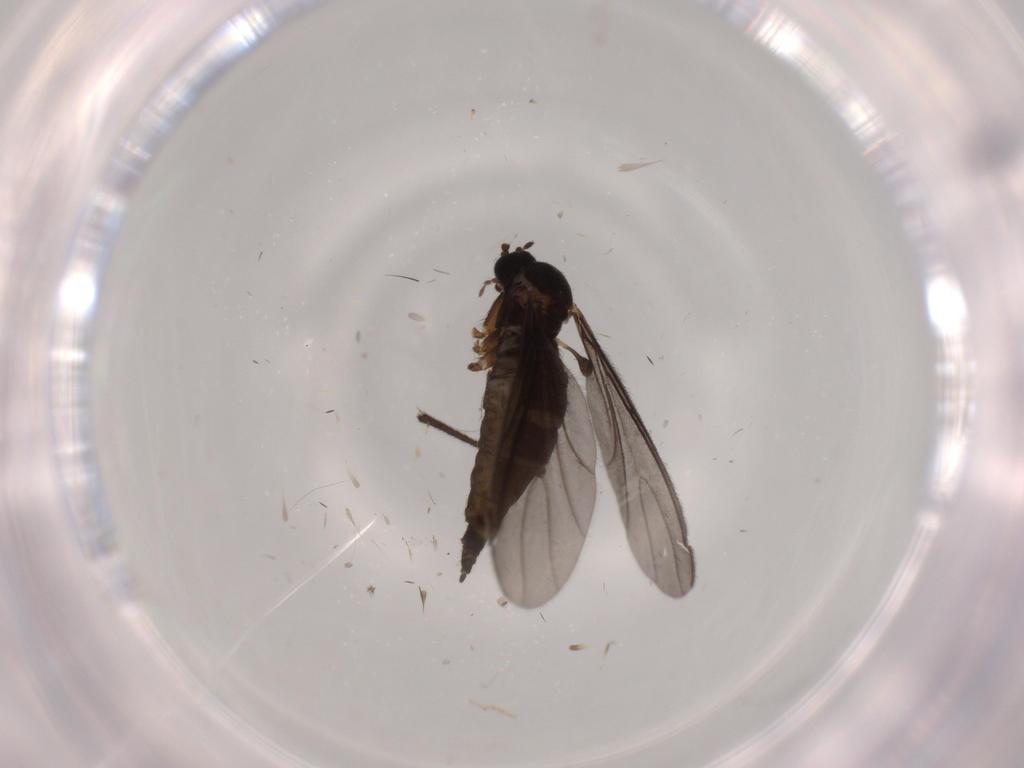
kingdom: Animalia
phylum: Arthropoda
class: Insecta
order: Diptera
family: Sciaridae
